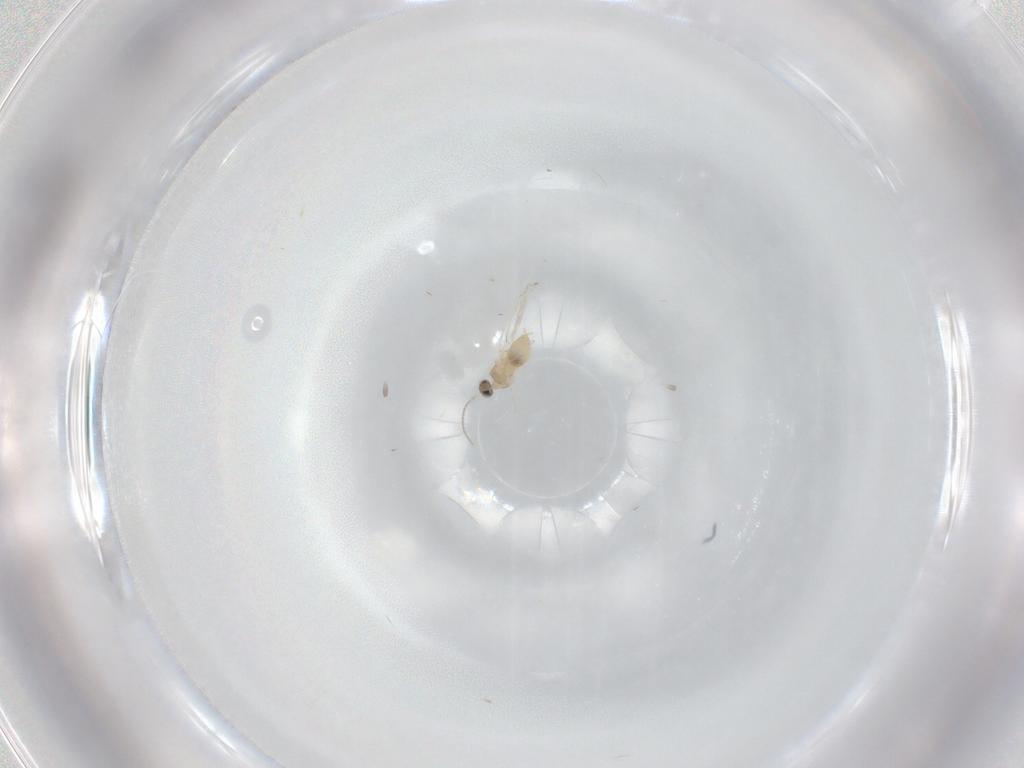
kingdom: Animalia
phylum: Arthropoda
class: Insecta
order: Diptera
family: Cecidomyiidae
